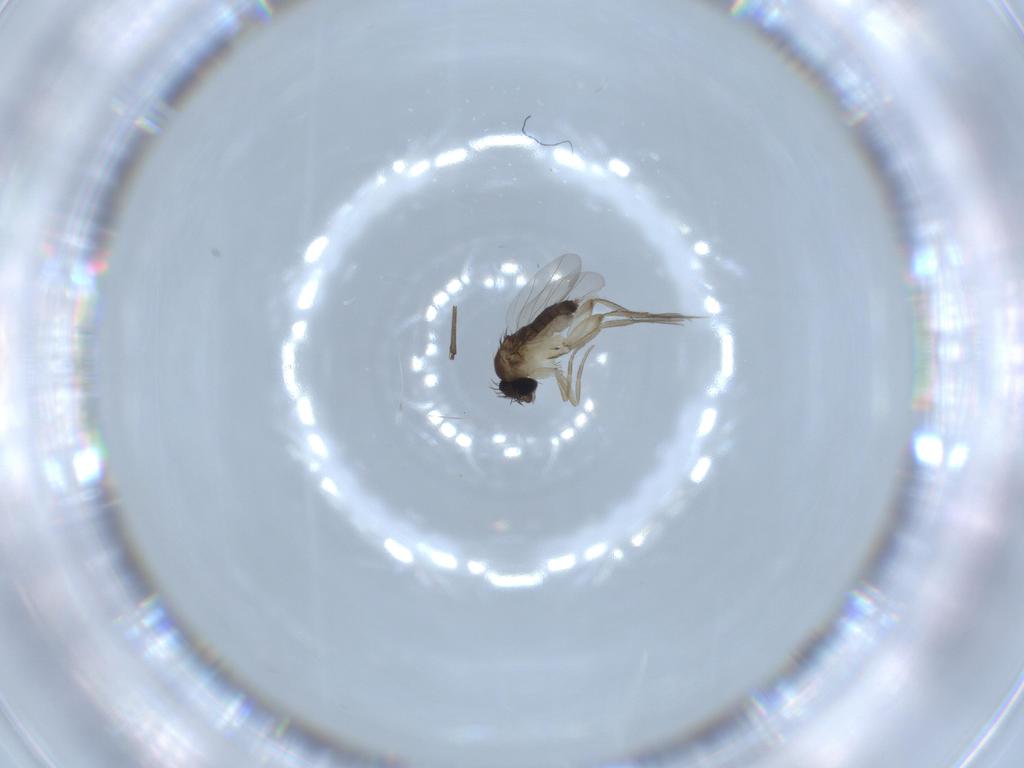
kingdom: Animalia
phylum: Arthropoda
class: Insecta
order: Diptera
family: Phoridae
